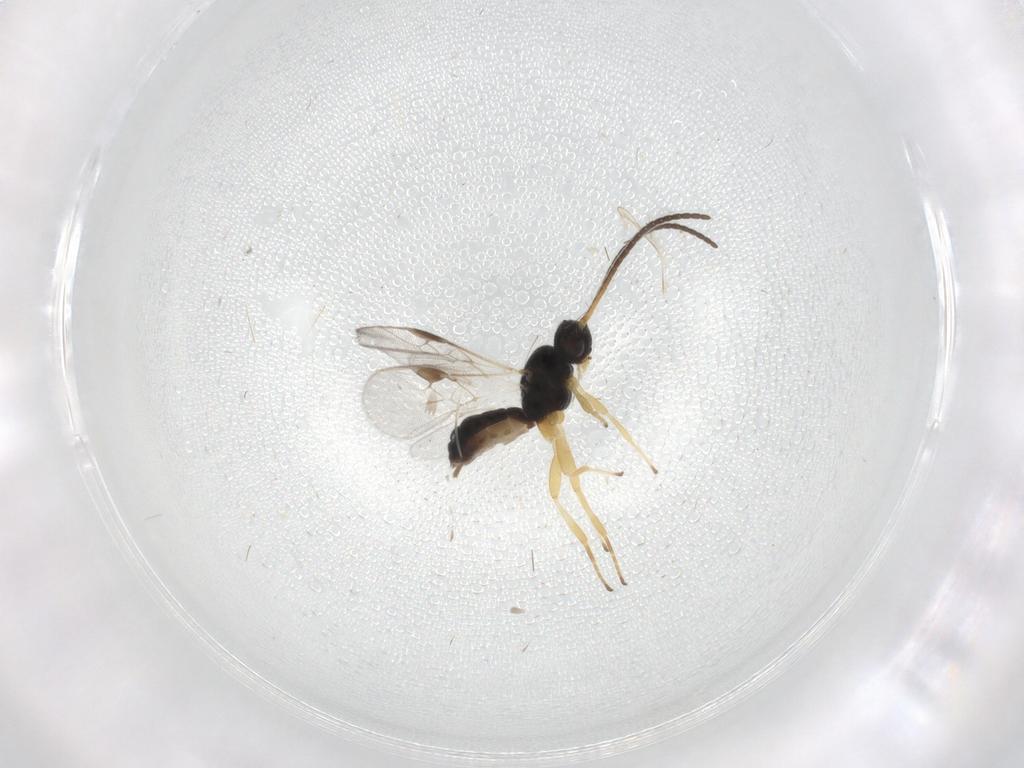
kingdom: Animalia
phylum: Arthropoda
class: Insecta
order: Hymenoptera
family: Braconidae
